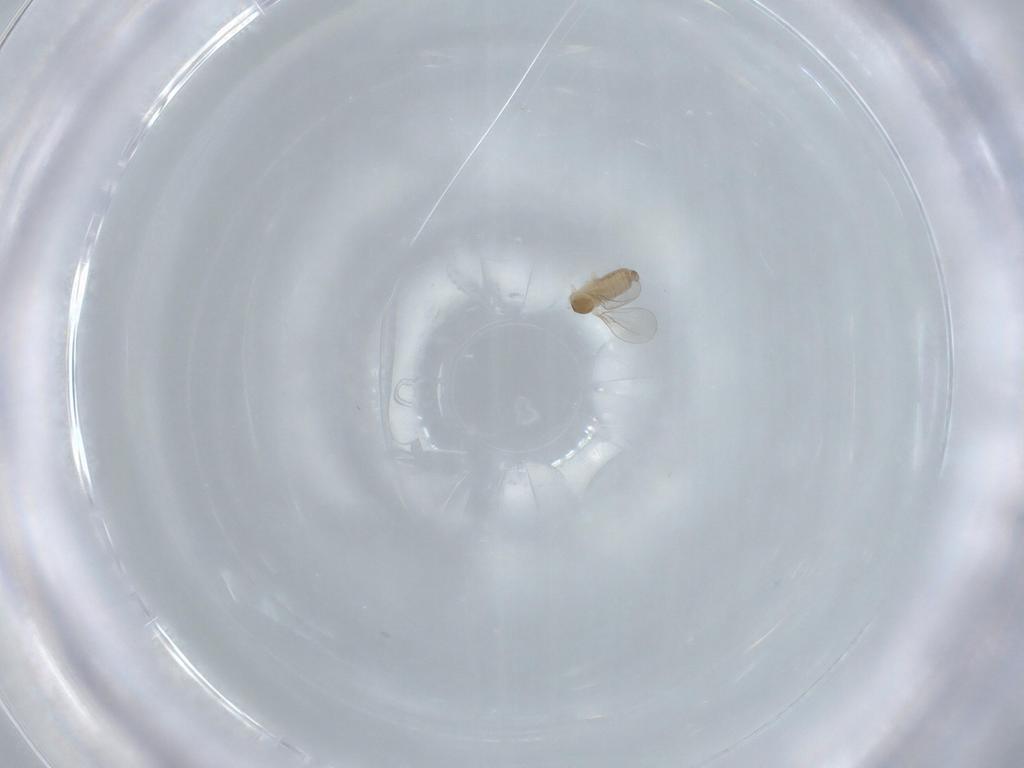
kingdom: Animalia
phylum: Arthropoda
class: Insecta
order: Diptera
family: Cecidomyiidae
